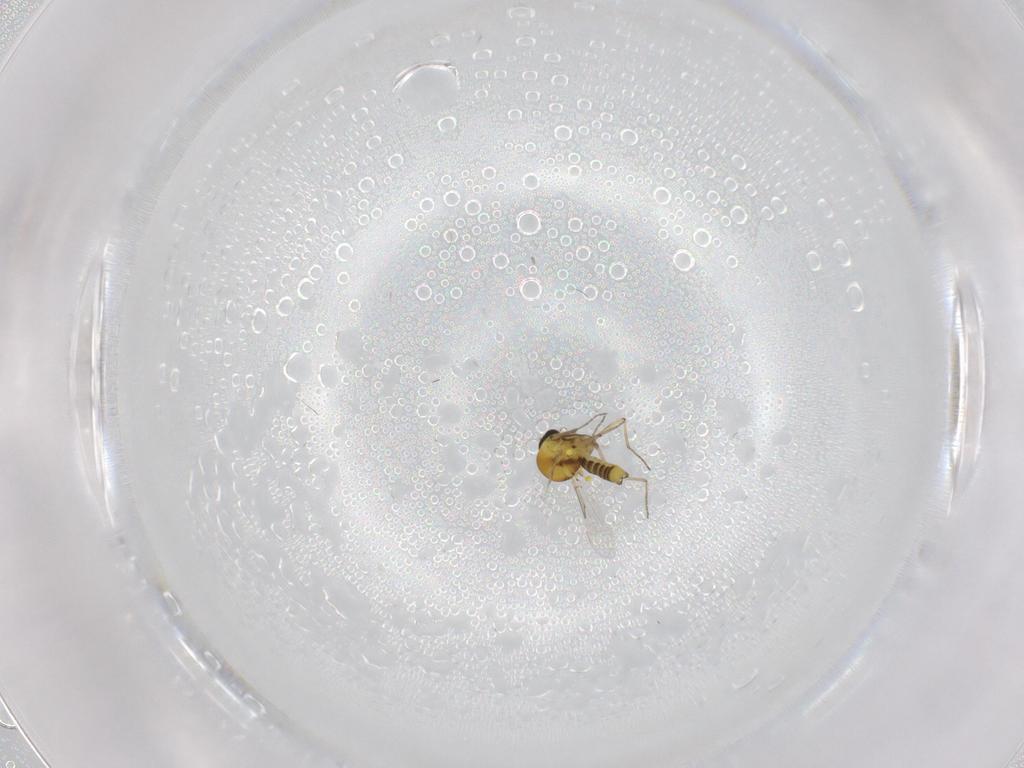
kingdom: Animalia
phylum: Arthropoda
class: Insecta
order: Diptera
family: Ceratopogonidae
